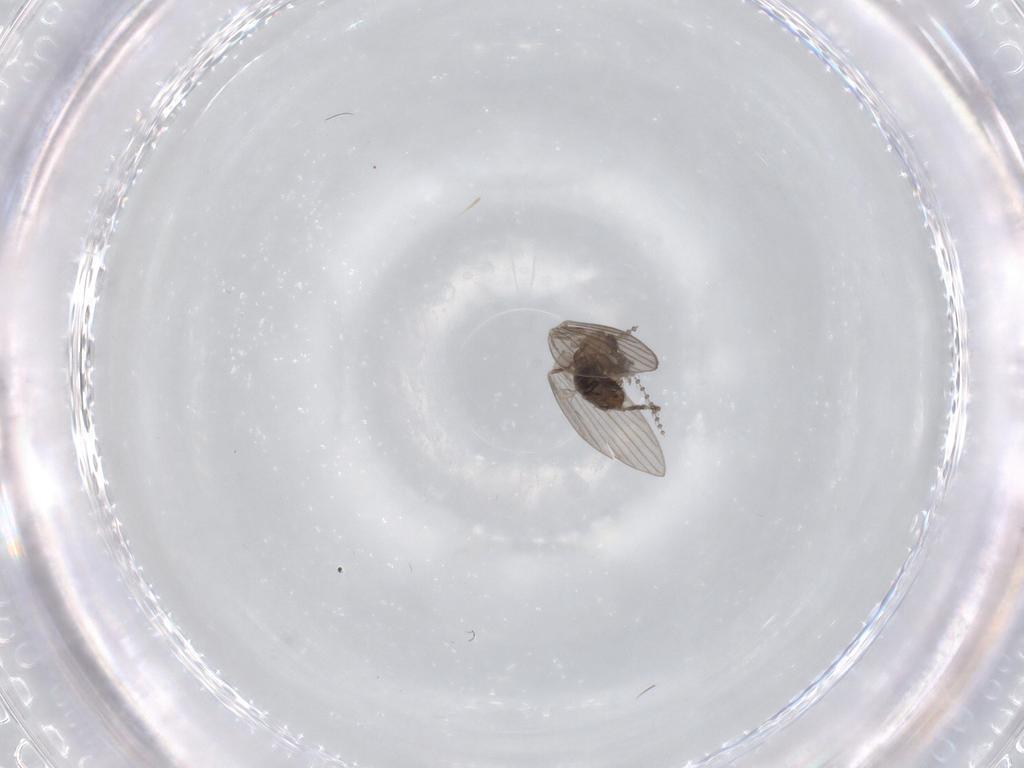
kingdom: Animalia
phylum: Arthropoda
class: Insecta
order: Diptera
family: Psychodidae
